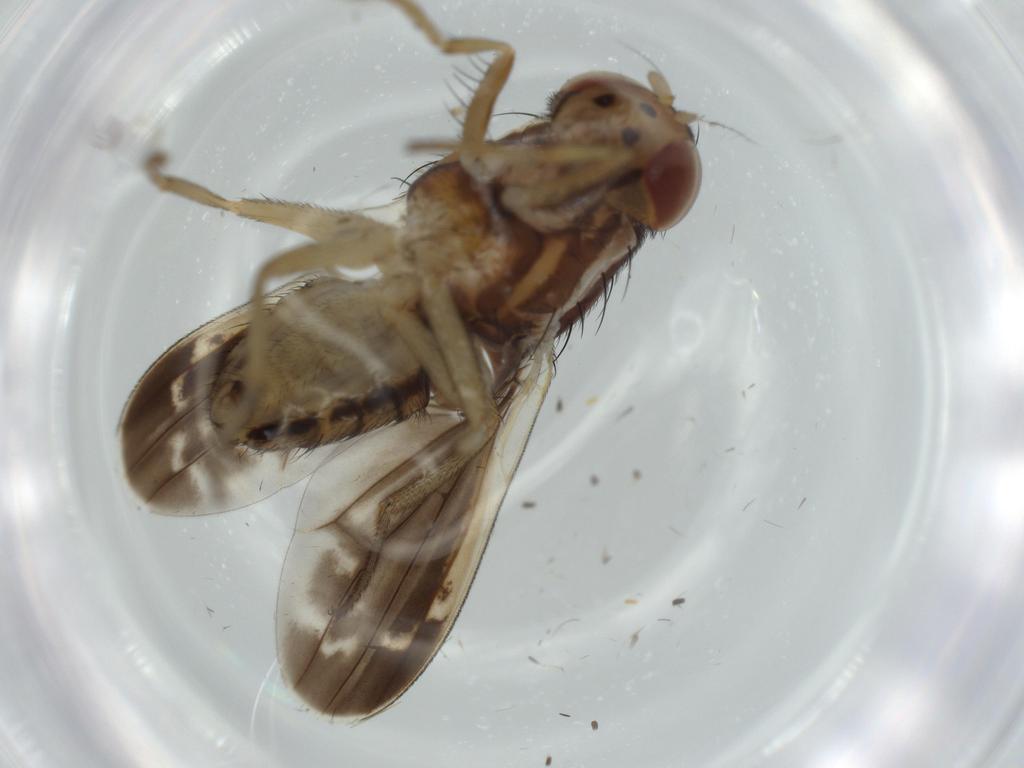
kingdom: Animalia
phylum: Arthropoda
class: Insecta
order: Diptera
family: Lauxaniidae
